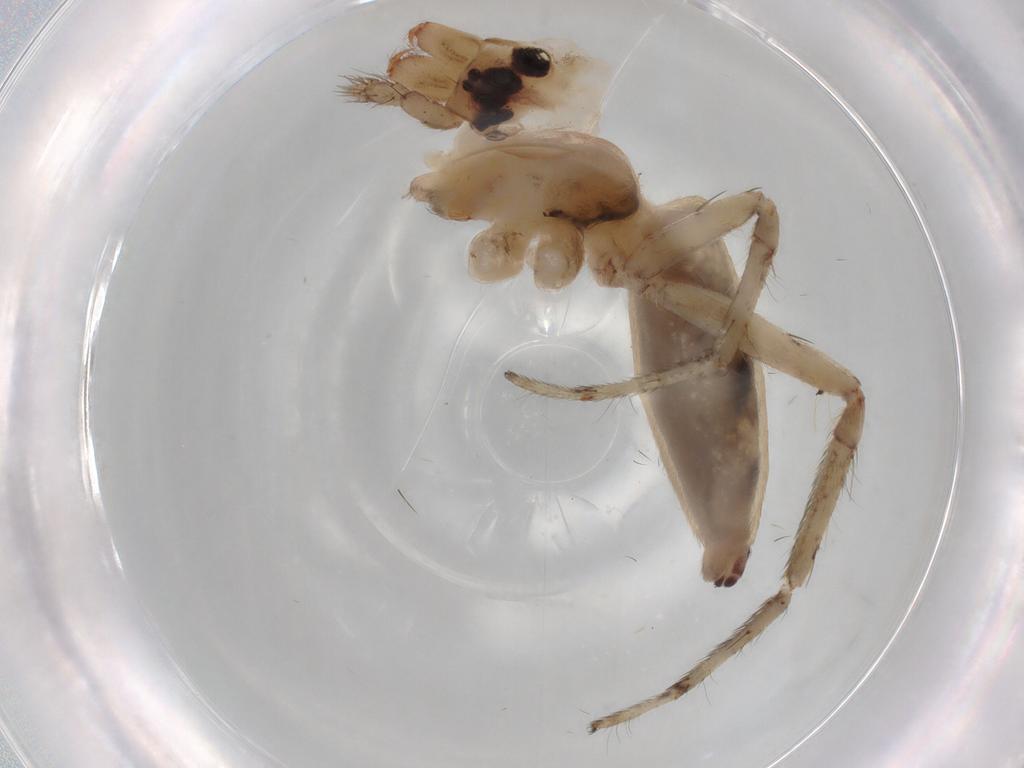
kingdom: Animalia
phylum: Arthropoda
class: Arachnida
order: Araneae
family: Senoculidae
